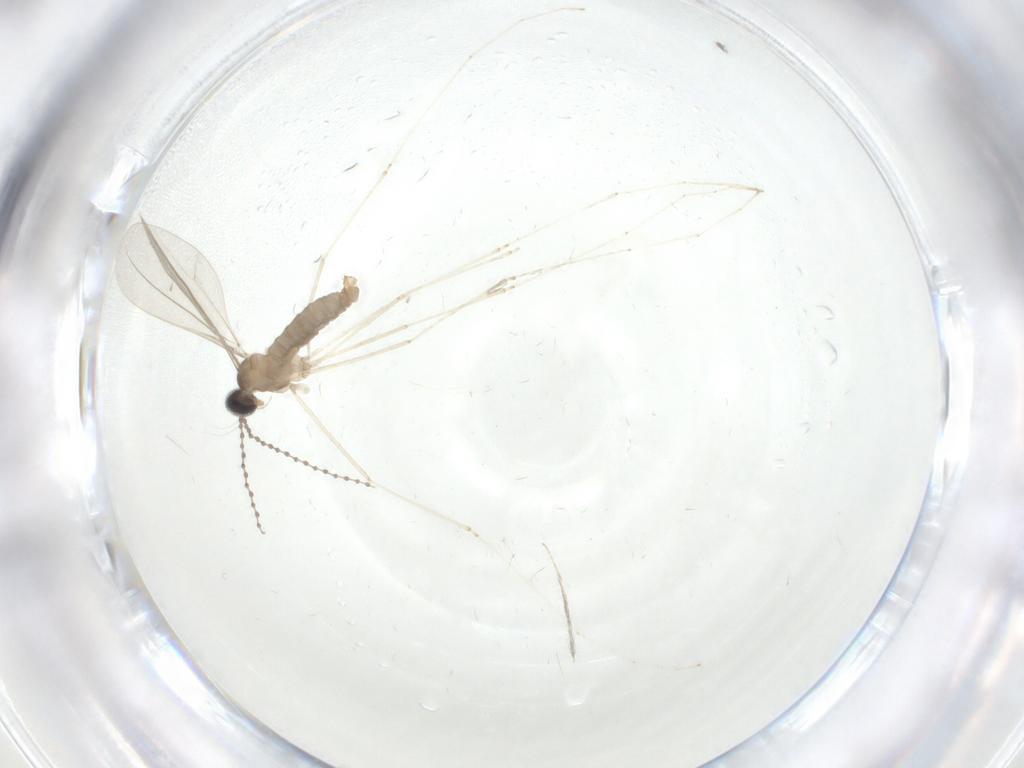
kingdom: Animalia
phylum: Arthropoda
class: Insecta
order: Diptera
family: Cecidomyiidae
